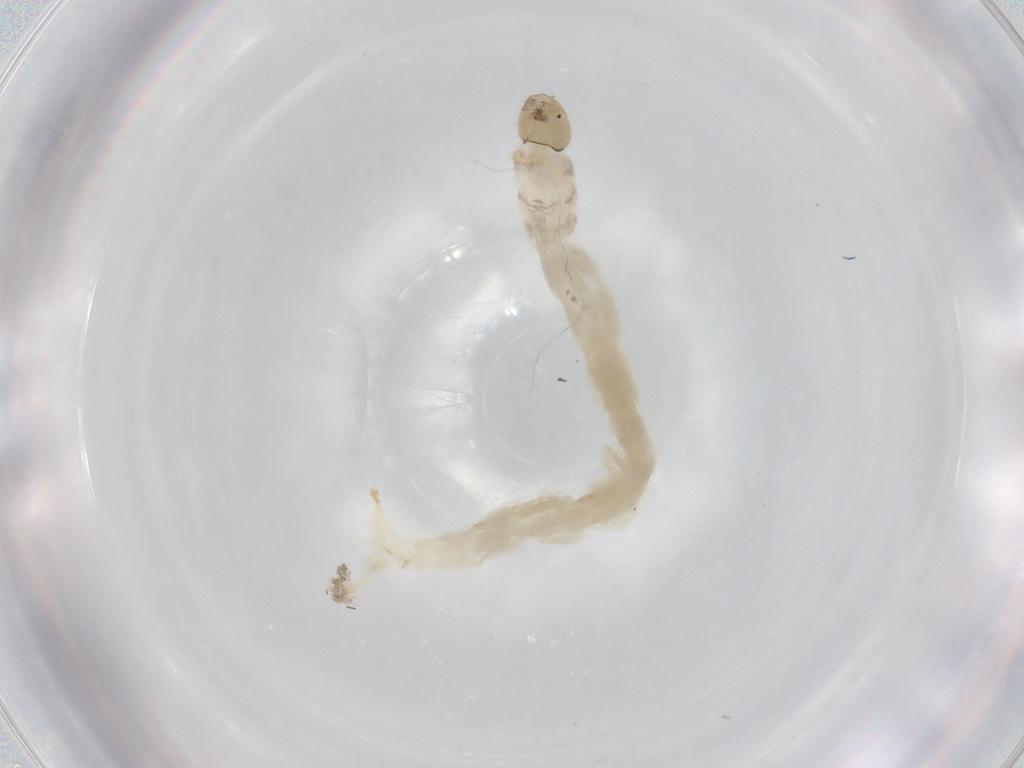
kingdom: Animalia
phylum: Arthropoda
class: Insecta
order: Diptera
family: Chironomidae
